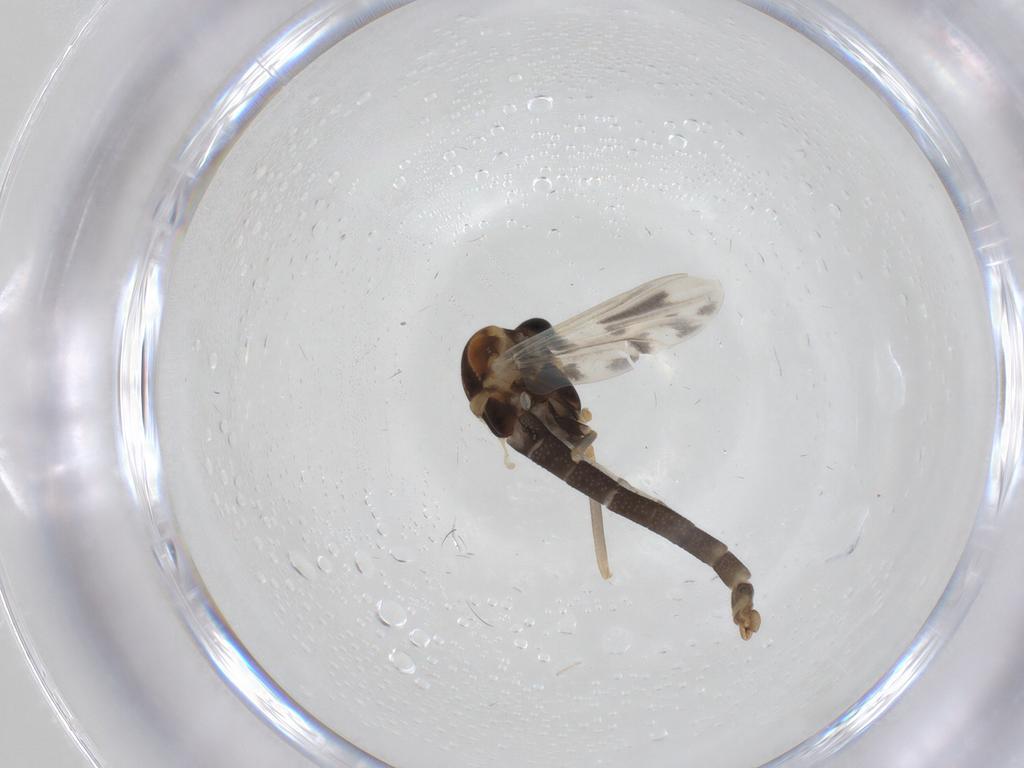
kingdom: Animalia
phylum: Arthropoda
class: Insecta
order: Diptera
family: Chironomidae
